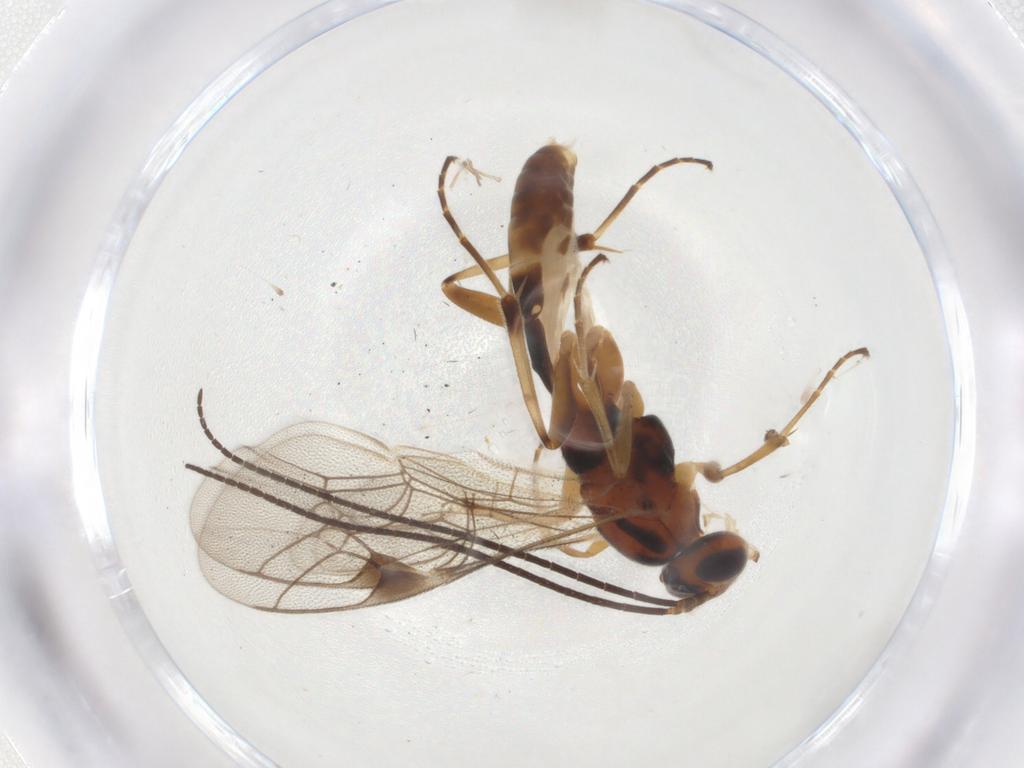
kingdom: Animalia
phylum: Arthropoda
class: Insecta
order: Hymenoptera
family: Ichneumonidae
